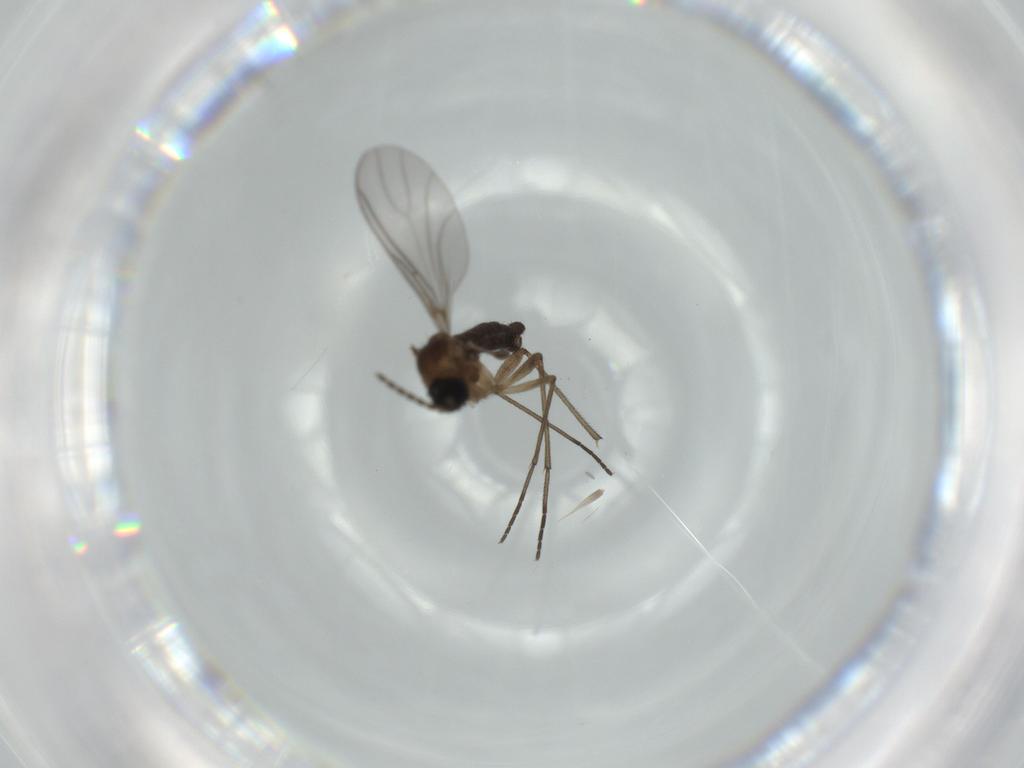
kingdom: Animalia
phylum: Arthropoda
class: Insecta
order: Diptera
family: Sciaridae
